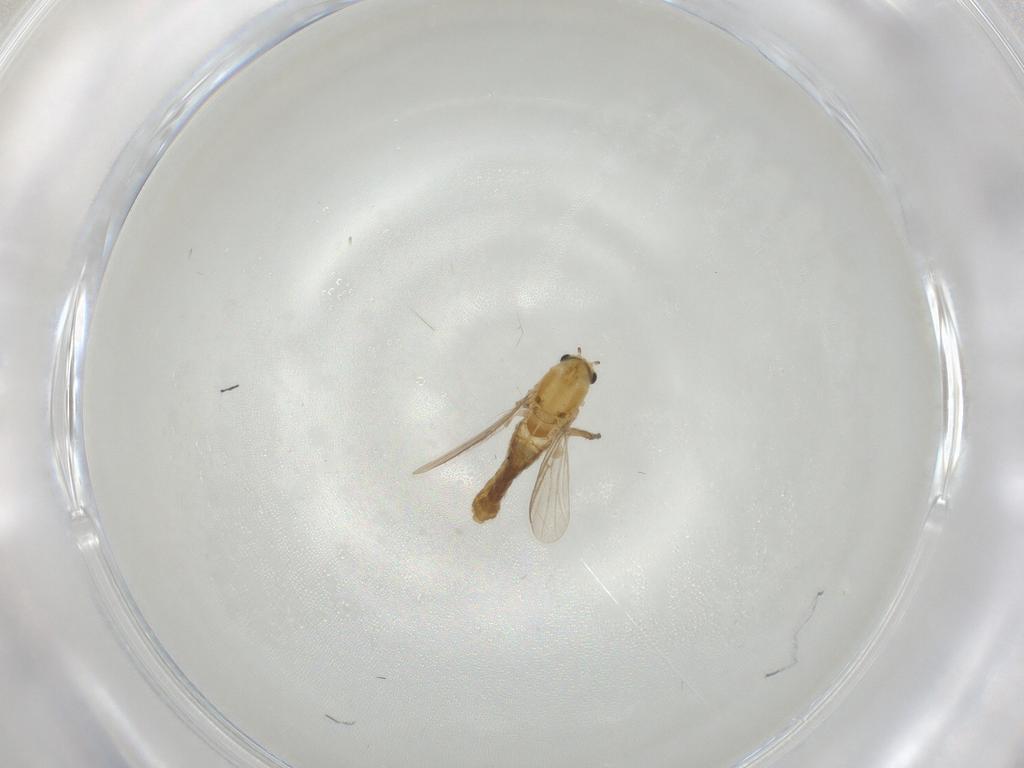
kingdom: Animalia
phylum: Arthropoda
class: Insecta
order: Diptera
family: Chironomidae
